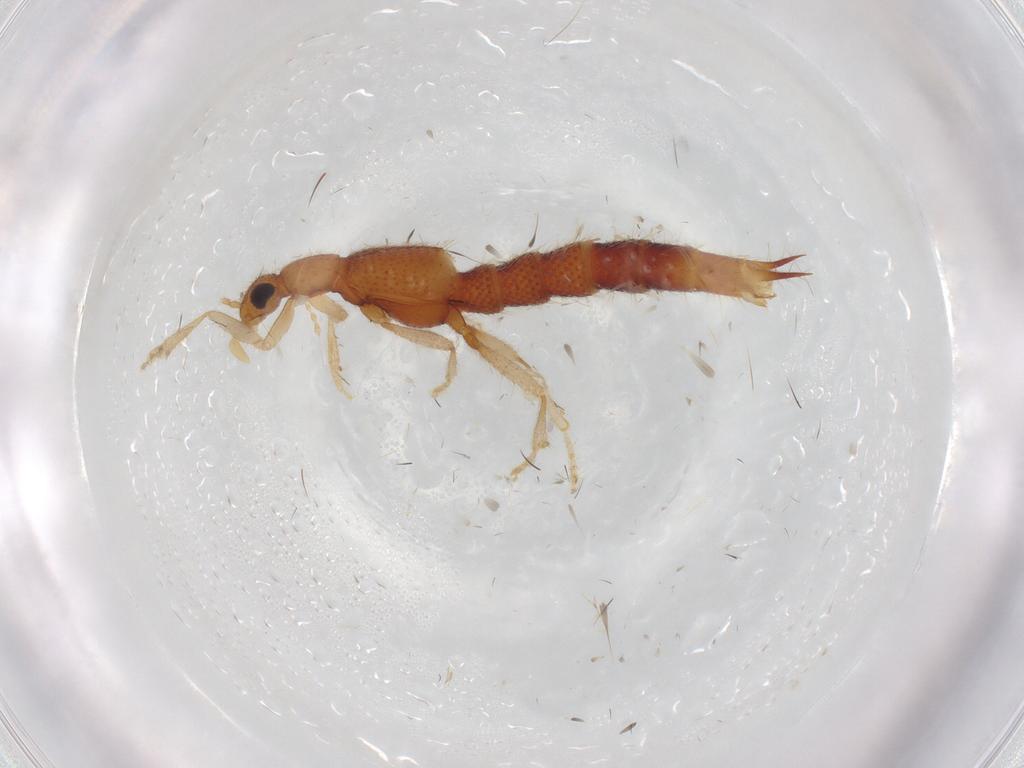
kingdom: Animalia
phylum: Arthropoda
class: Insecta
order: Coleoptera
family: Staphylinidae
